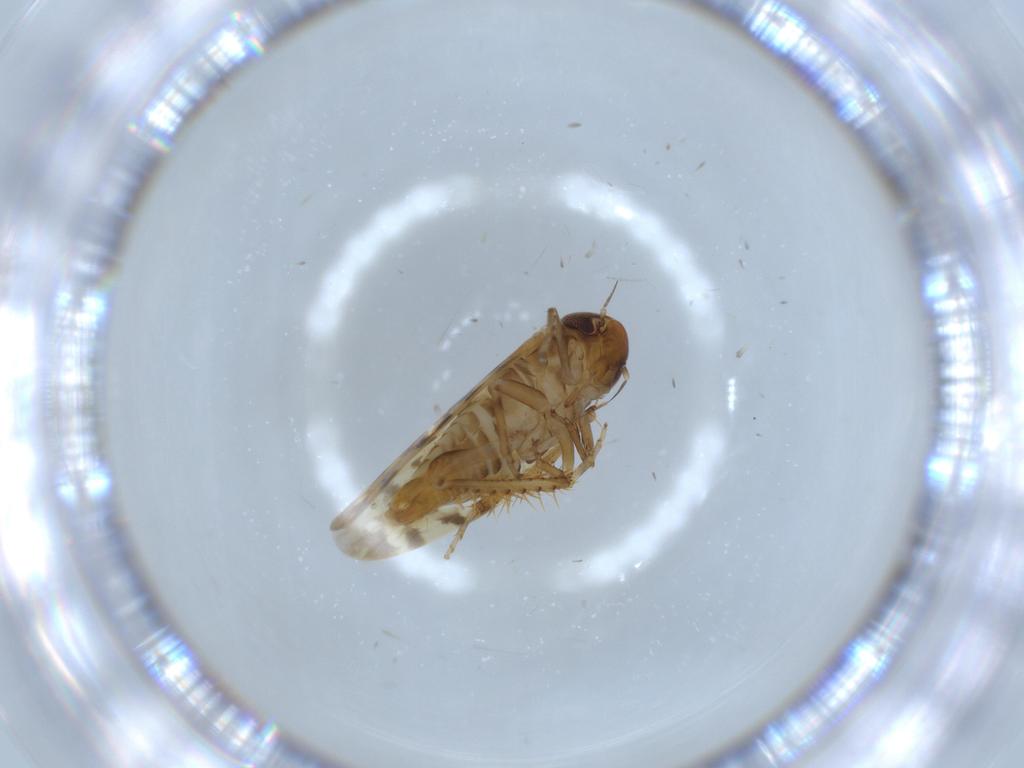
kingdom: Animalia
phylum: Arthropoda
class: Insecta
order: Hemiptera
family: Cicadellidae
